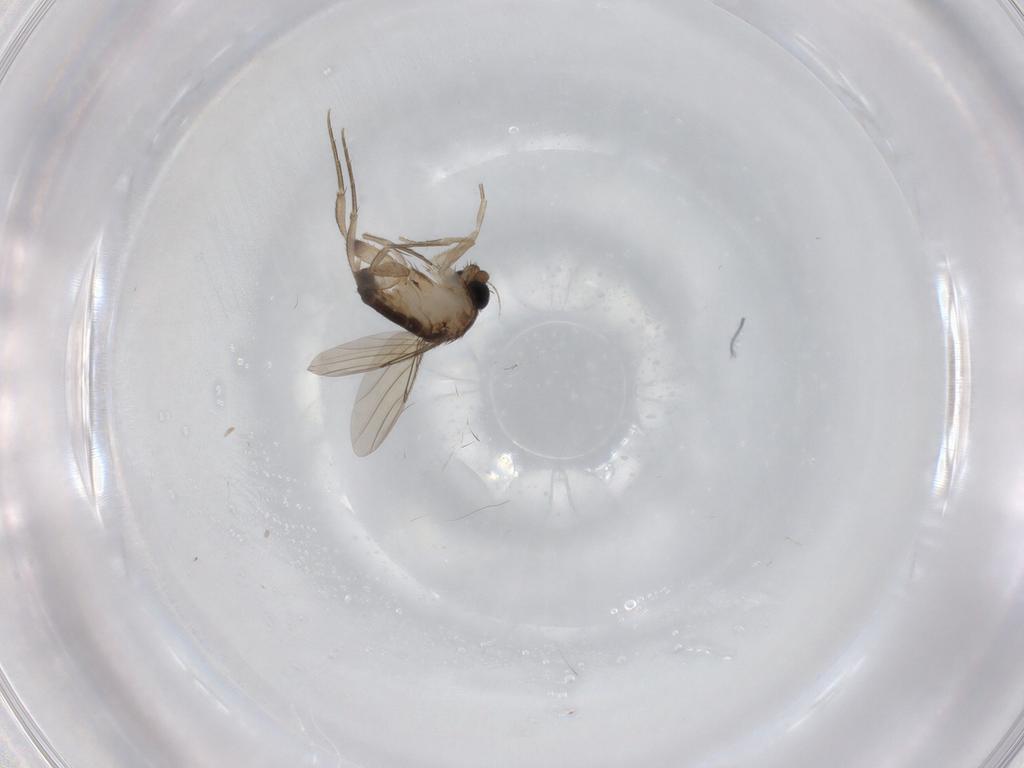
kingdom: Animalia
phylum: Arthropoda
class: Insecta
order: Diptera
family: Phoridae
